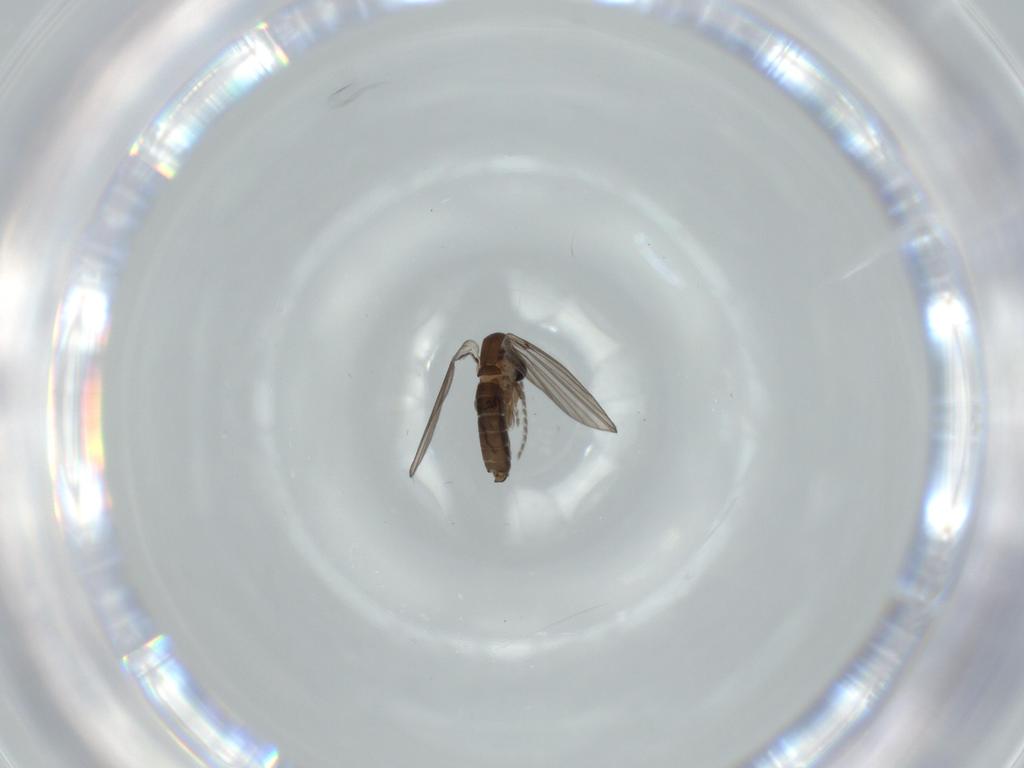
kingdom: Animalia
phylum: Arthropoda
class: Insecta
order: Diptera
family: Psychodidae
